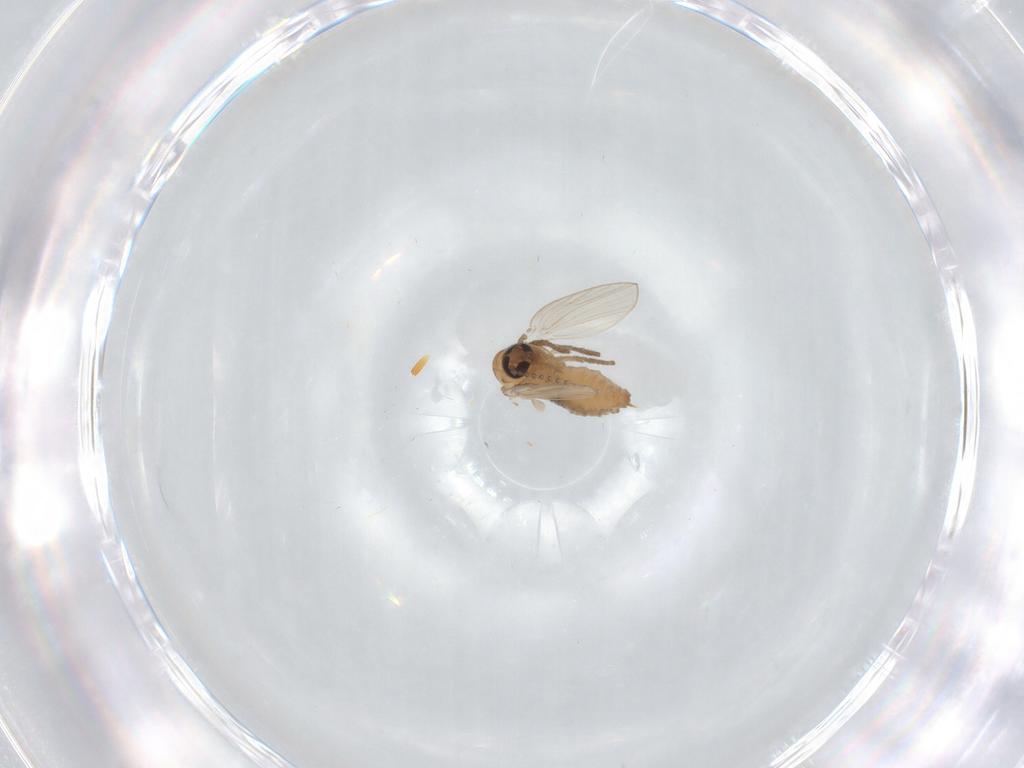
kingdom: Animalia
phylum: Arthropoda
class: Insecta
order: Diptera
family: Psychodidae
